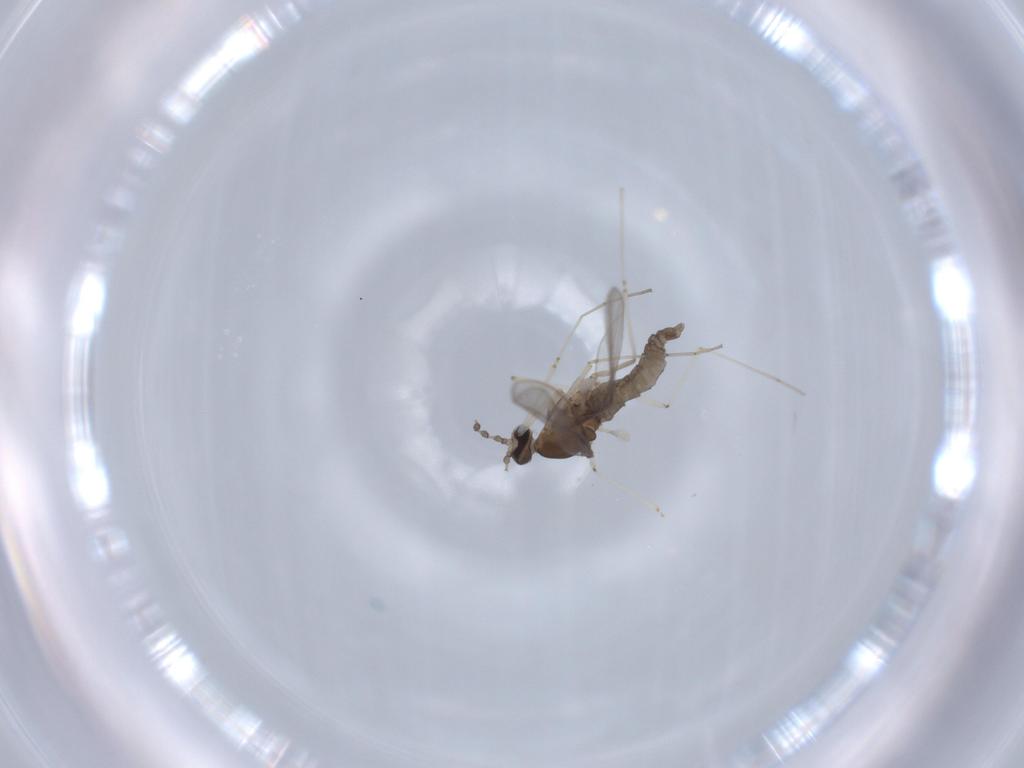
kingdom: Animalia
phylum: Arthropoda
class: Insecta
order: Diptera
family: Cecidomyiidae
